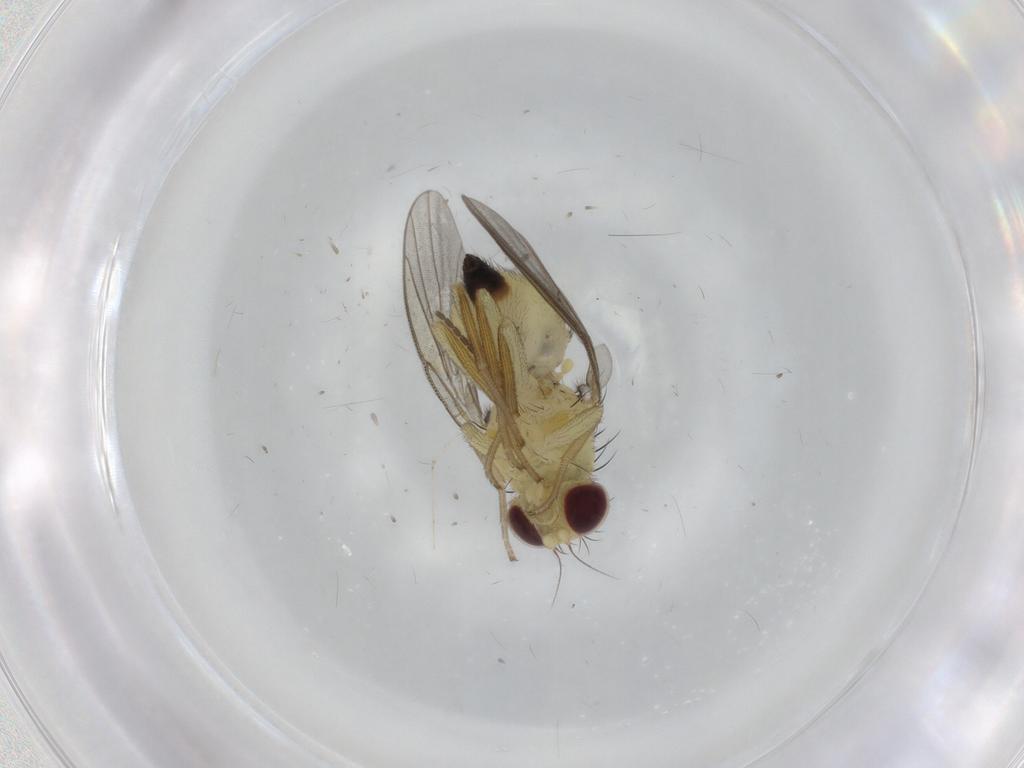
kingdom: Animalia
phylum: Arthropoda
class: Insecta
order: Diptera
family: Agromyzidae
